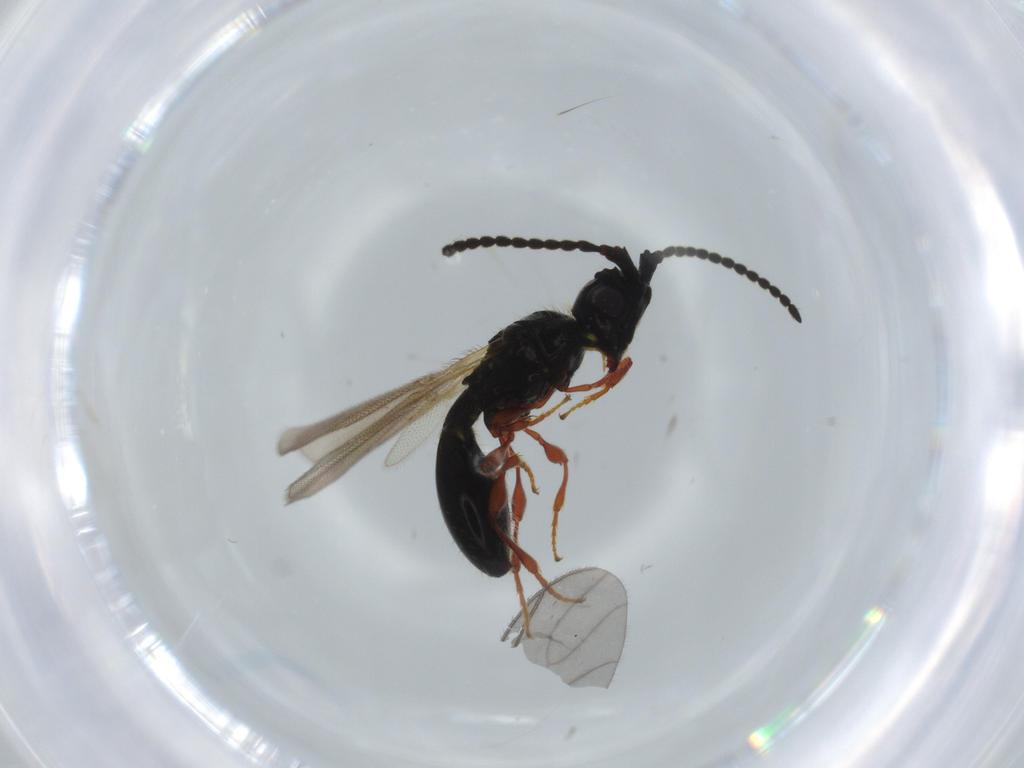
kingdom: Animalia
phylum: Arthropoda
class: Insecta
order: Hymenoptera
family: Diapriidae
